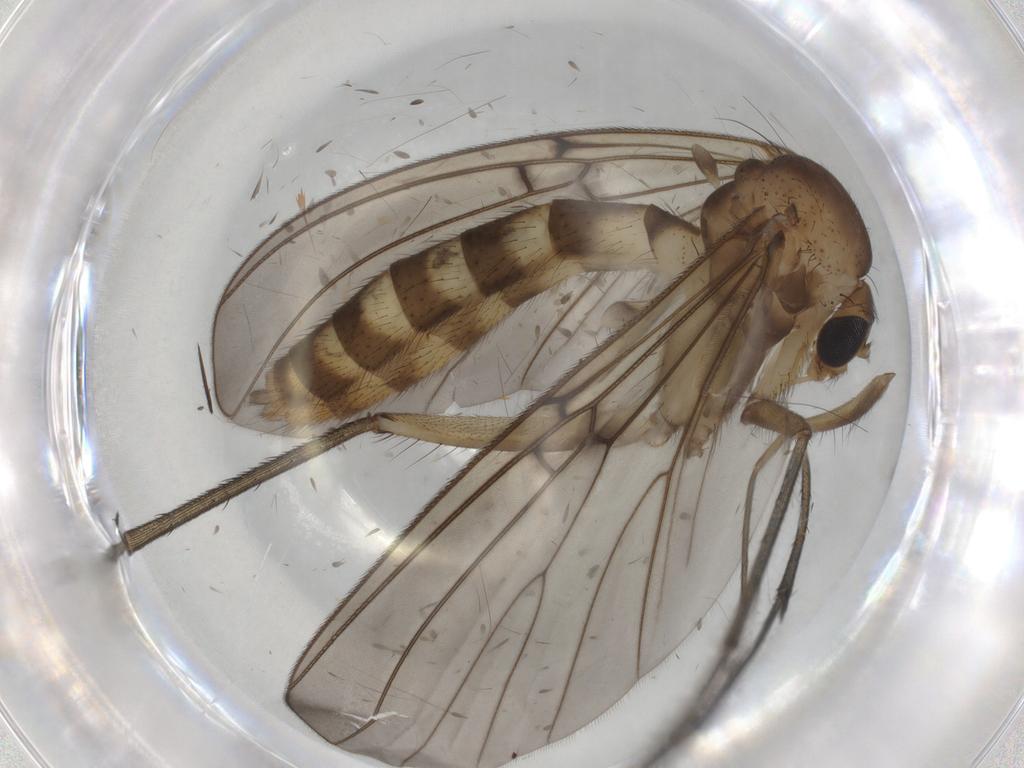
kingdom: Animalia
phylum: Arthropoda
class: Insecta
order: Diptera
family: Mycetophilidae
